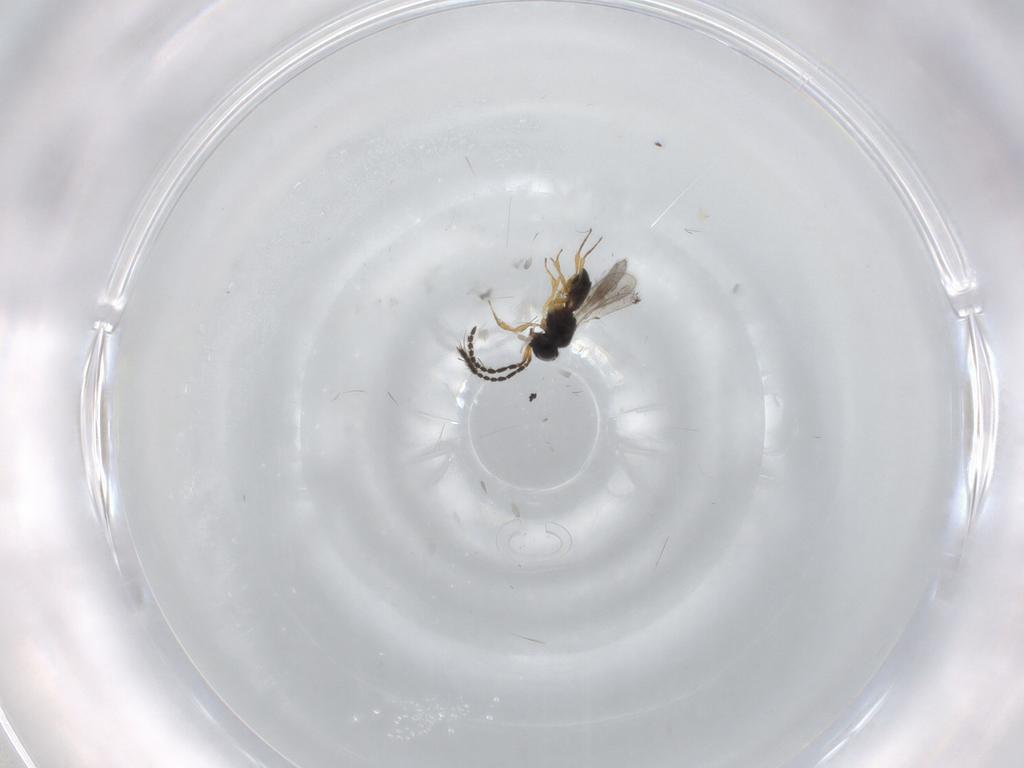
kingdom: Animalia
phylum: Arthropoda
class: Insecta
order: Hymenoptera
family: Scelionidae
